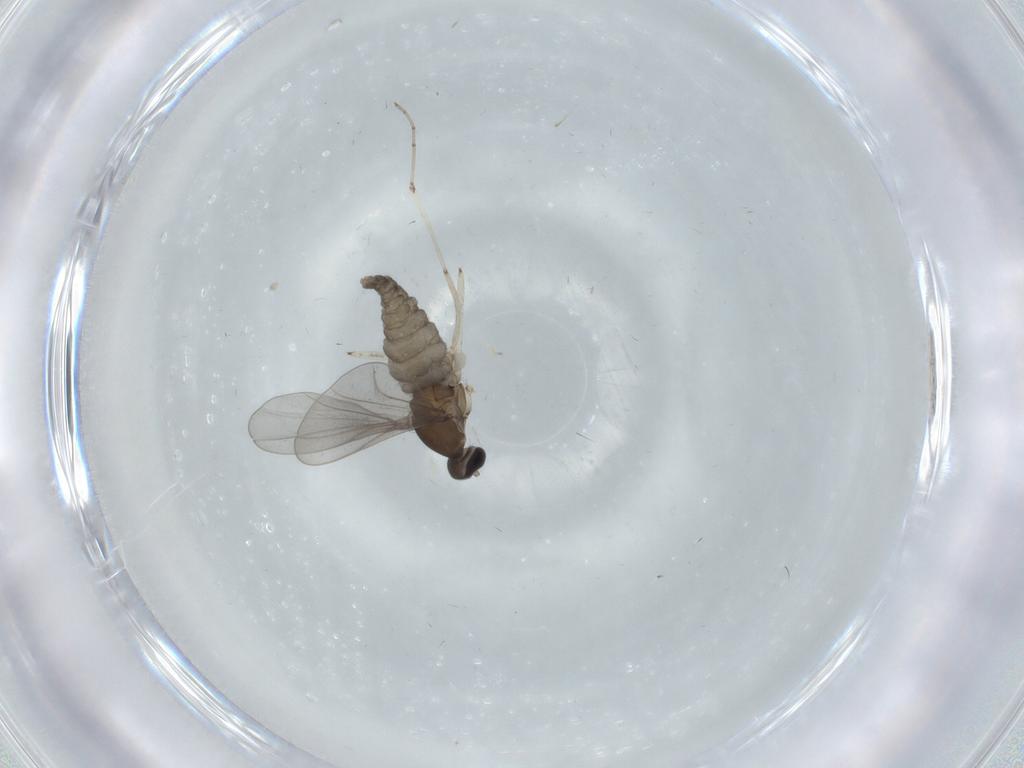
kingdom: Animalia
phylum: Arthropoda
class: Insecta
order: Diptera
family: Cecidomyiidae
